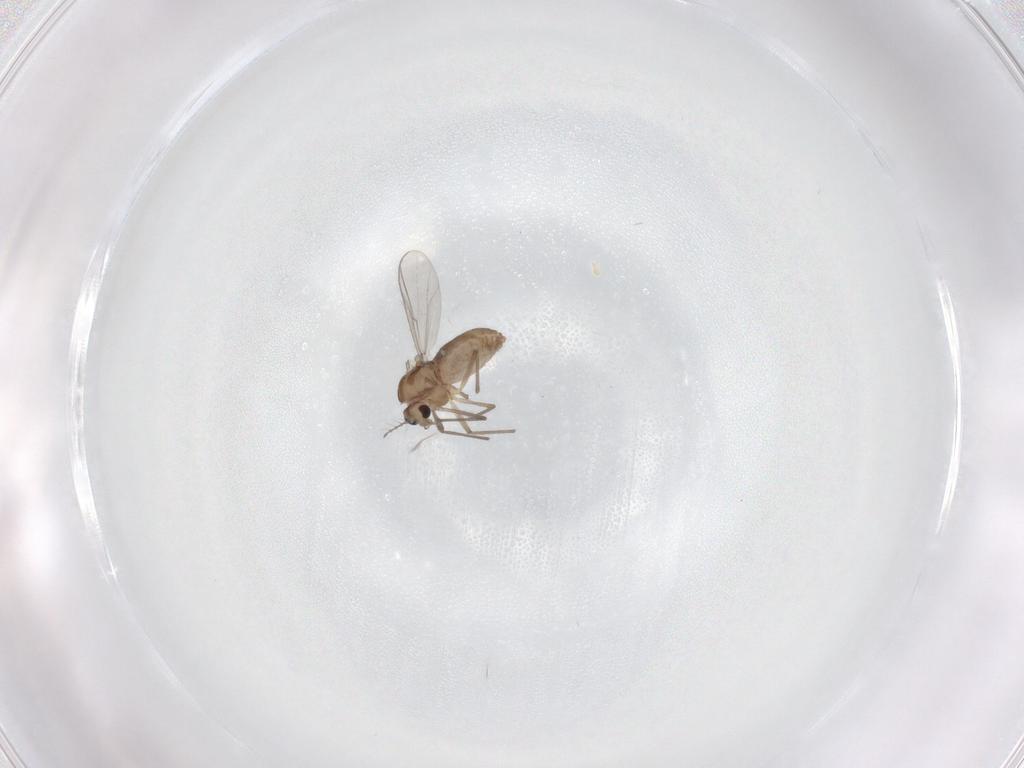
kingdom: Animalia
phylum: Arthropoda
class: Insecta
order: Diptera
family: Chironomidae
